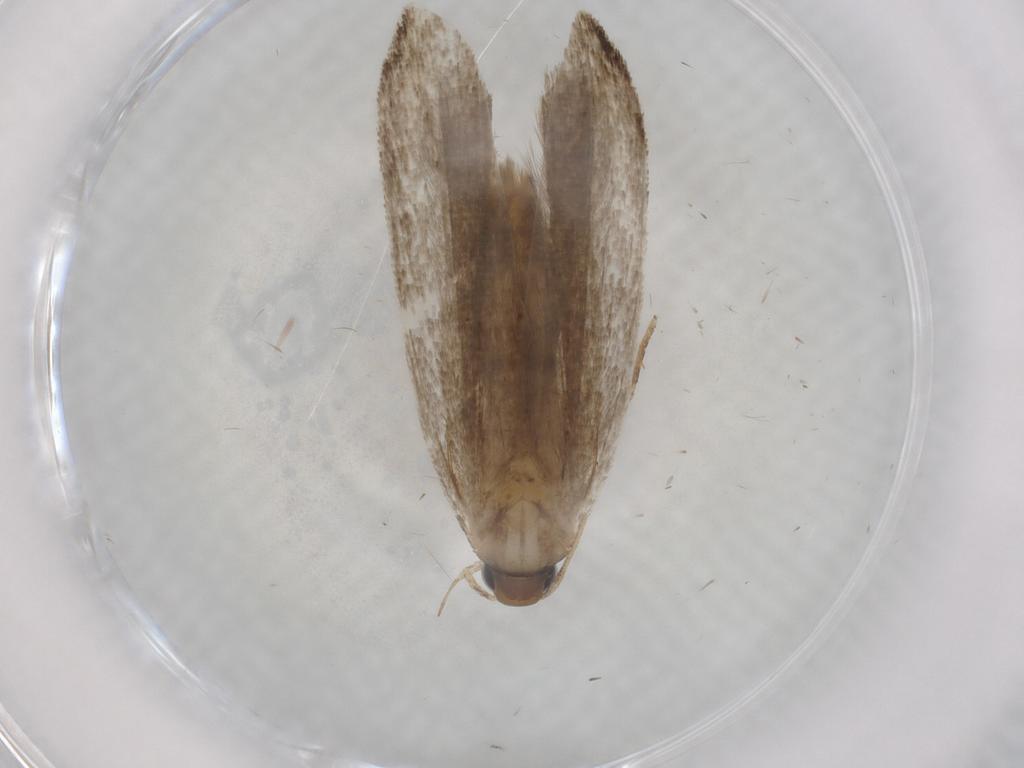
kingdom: Animalia
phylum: Arthropoda
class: Insecta
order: Lepidoptera
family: Gelechiidae
